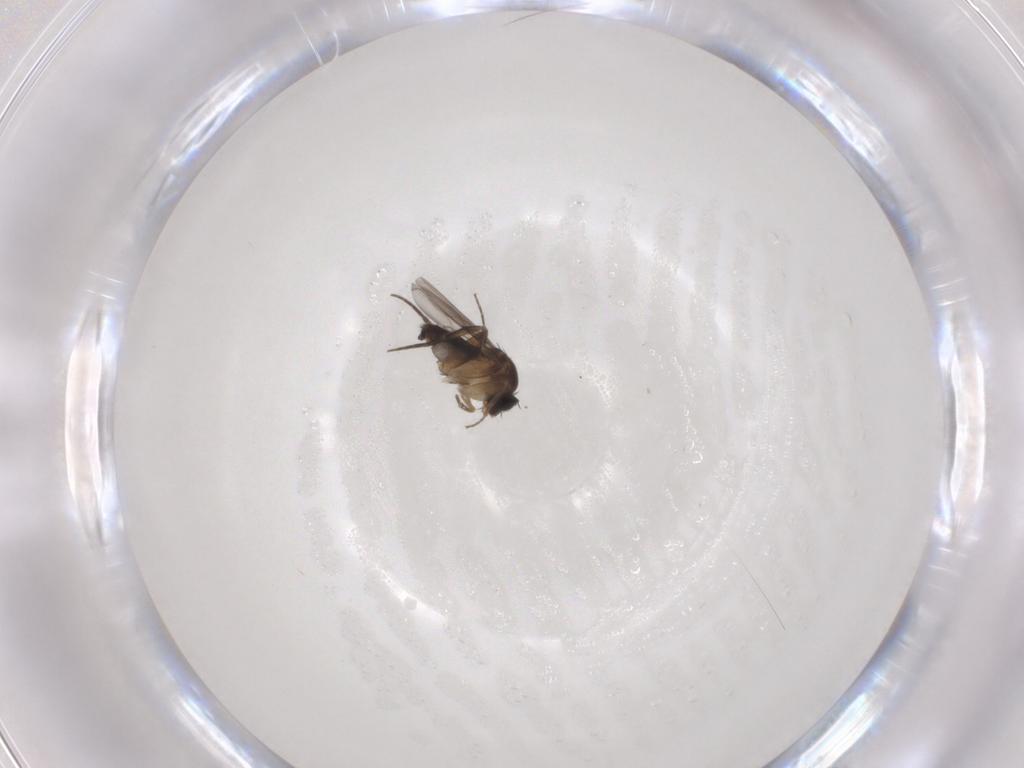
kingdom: Animalia
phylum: Arthropoda
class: Insecta
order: Diptera
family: Phoridae
